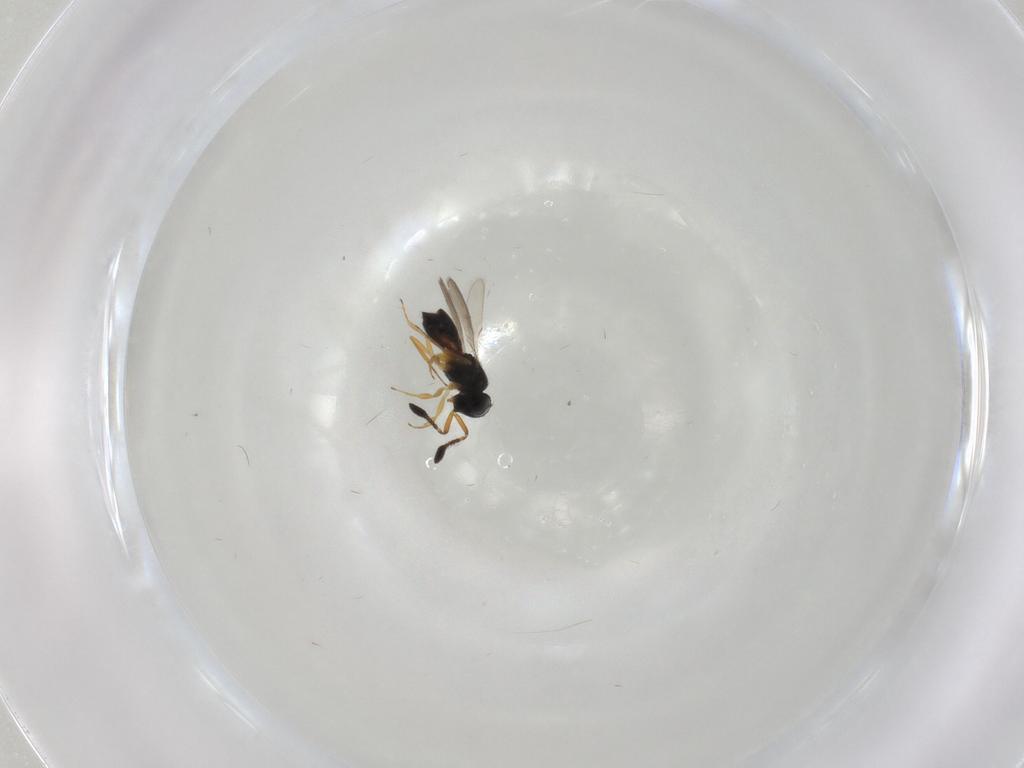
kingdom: Animalia
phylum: Arthropoda
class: Insecta
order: Hymenoptera
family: Scelionidae
